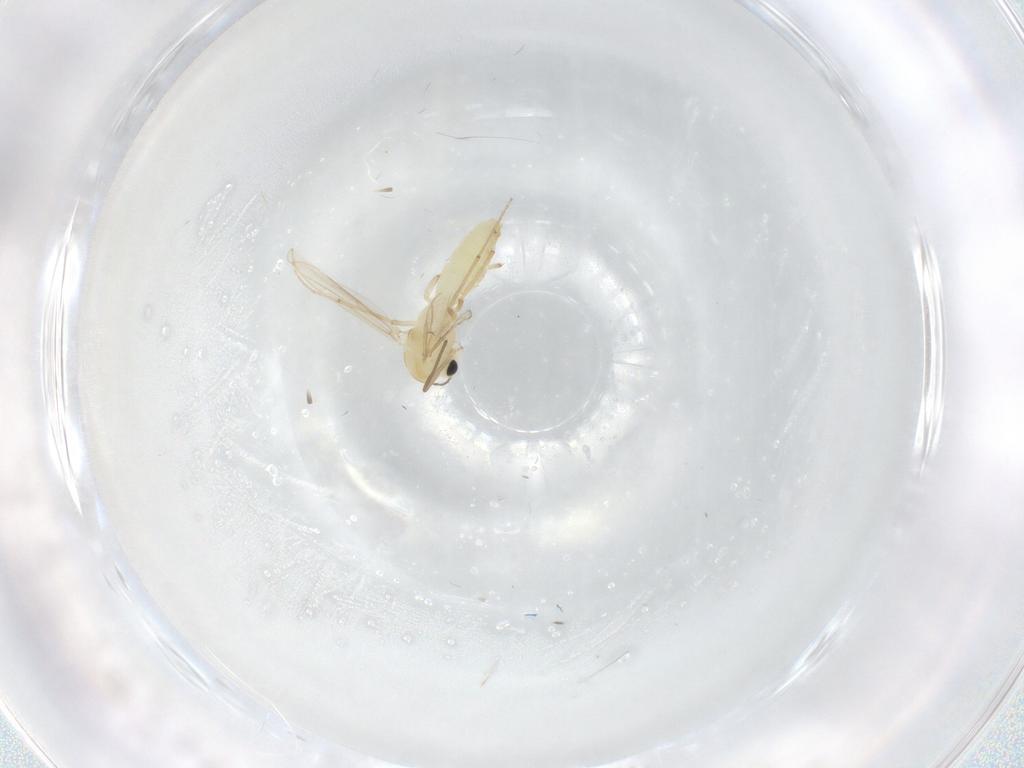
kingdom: Animalia
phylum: Arthropoda
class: Insecta
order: Diptera
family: Chironomidae
